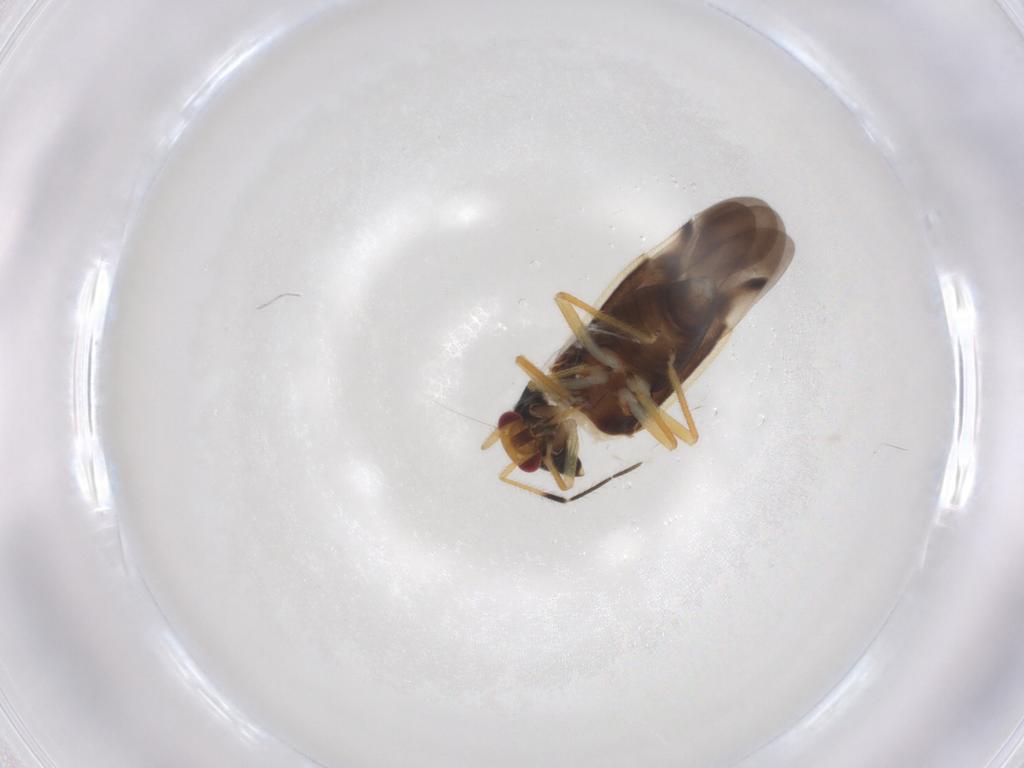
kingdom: Animalia
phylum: Arthropoda
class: Insecta
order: Hemiptera
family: Miridae
